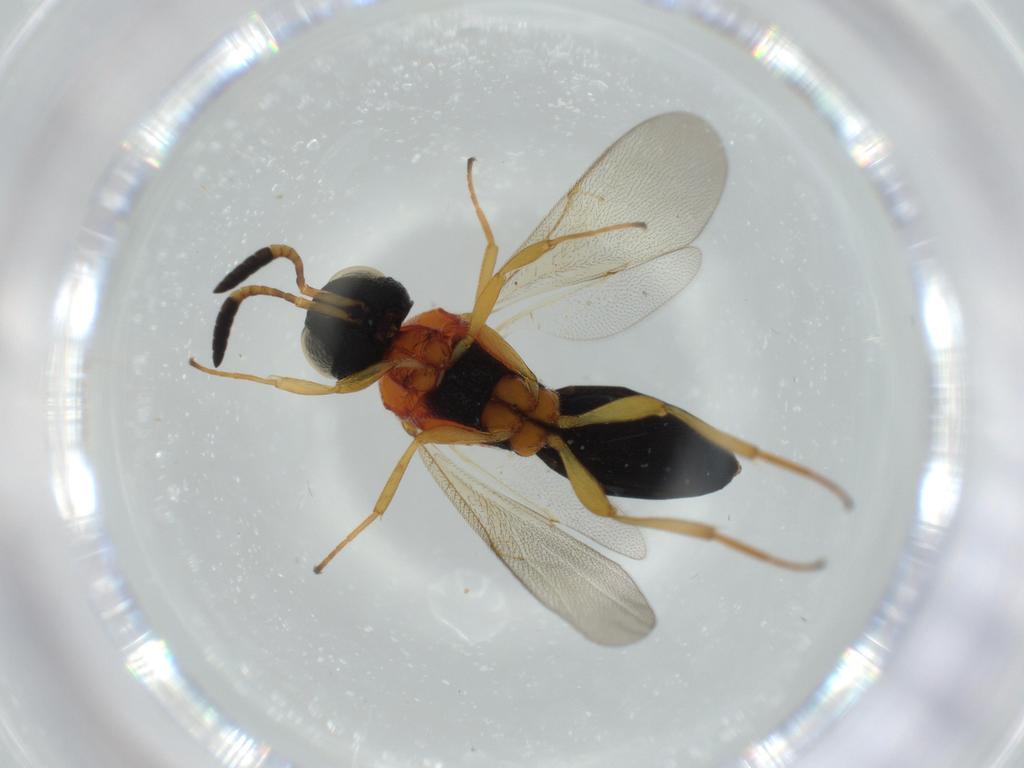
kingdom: Animalia
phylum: Arthropoda
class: Insecta
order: Hymenoptera
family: Scelionidae
